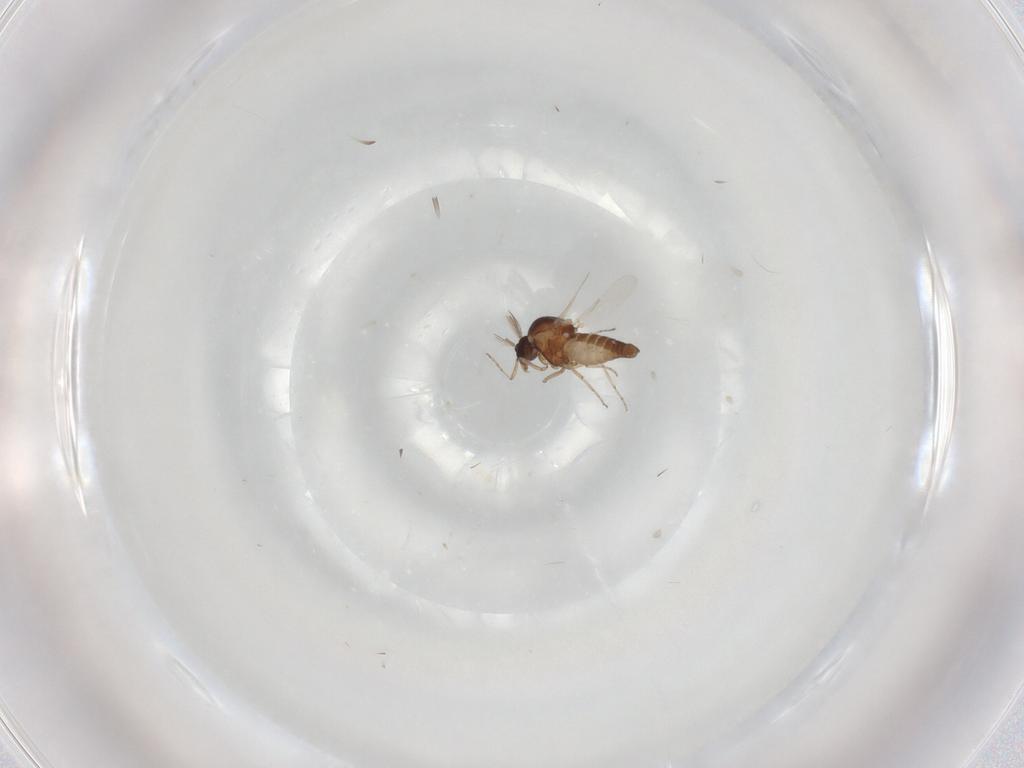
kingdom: Animalia
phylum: Arthropoda
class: Insecta
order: Diptera
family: Ceratopogonidae
